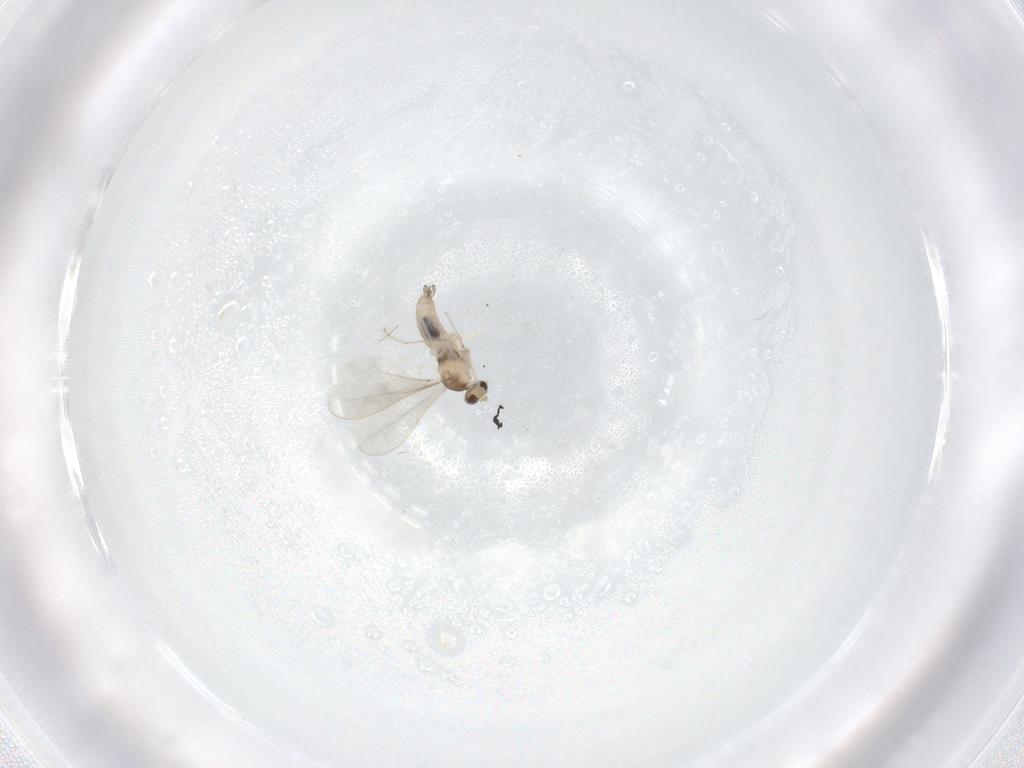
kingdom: Animalia
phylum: Arthropoda
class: Insecta
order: Diptera
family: Cecidomyiidae
